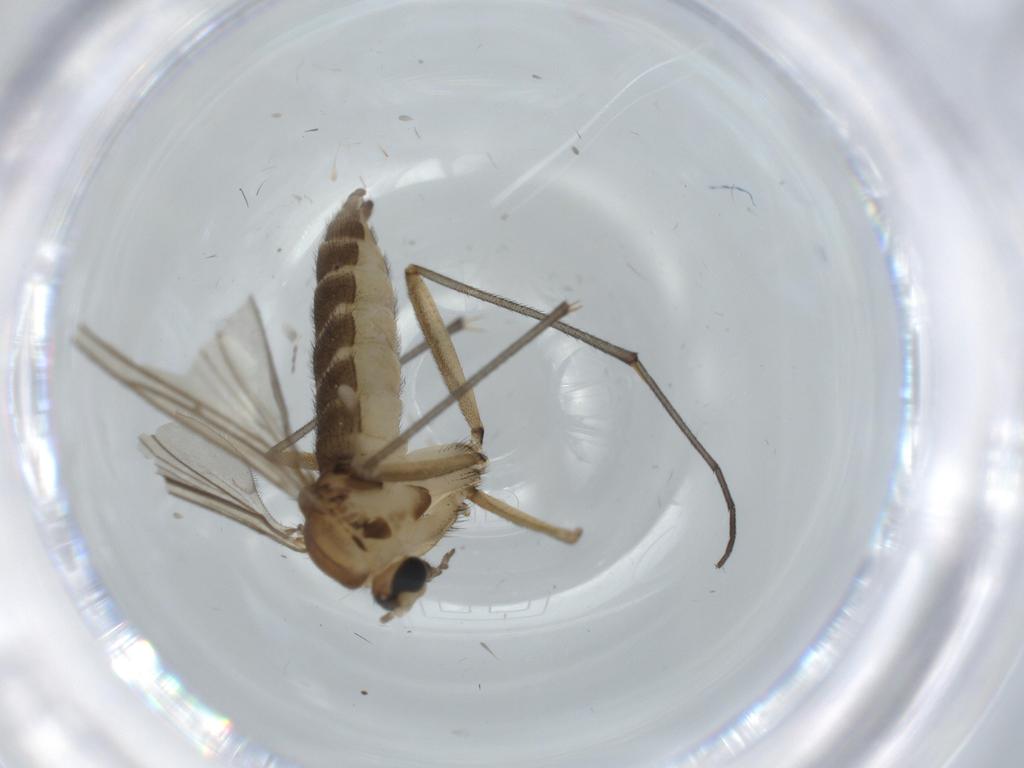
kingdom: Animalia
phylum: Arthropoda
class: Insecta
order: Diptera
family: Sciaridae
